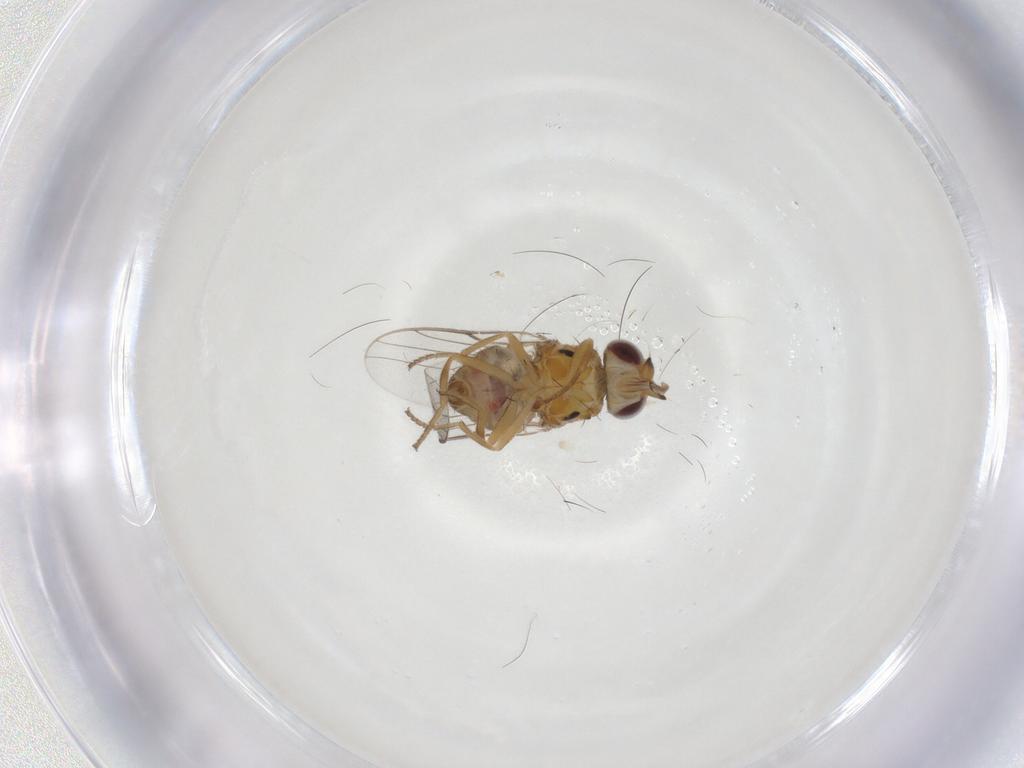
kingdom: Animalia
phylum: Arthropoda
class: Insecta
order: Diptera
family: Chloropidae
